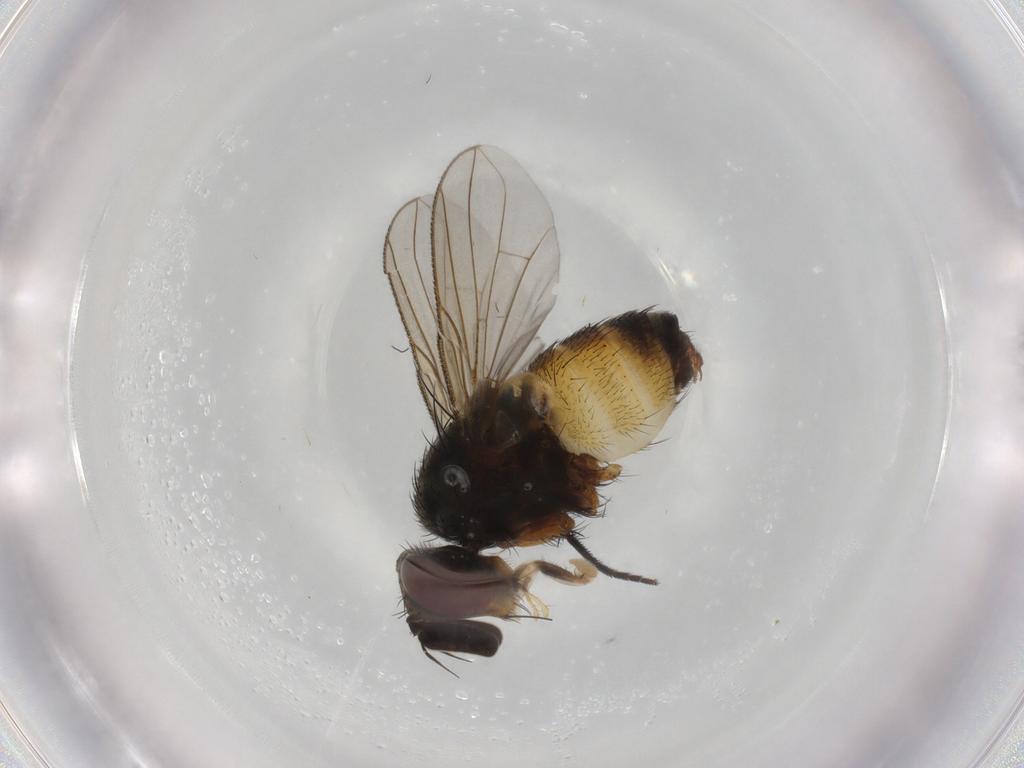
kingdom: Animalia
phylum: Arthropoda
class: Insecta
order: Diptera
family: Tachinidae
